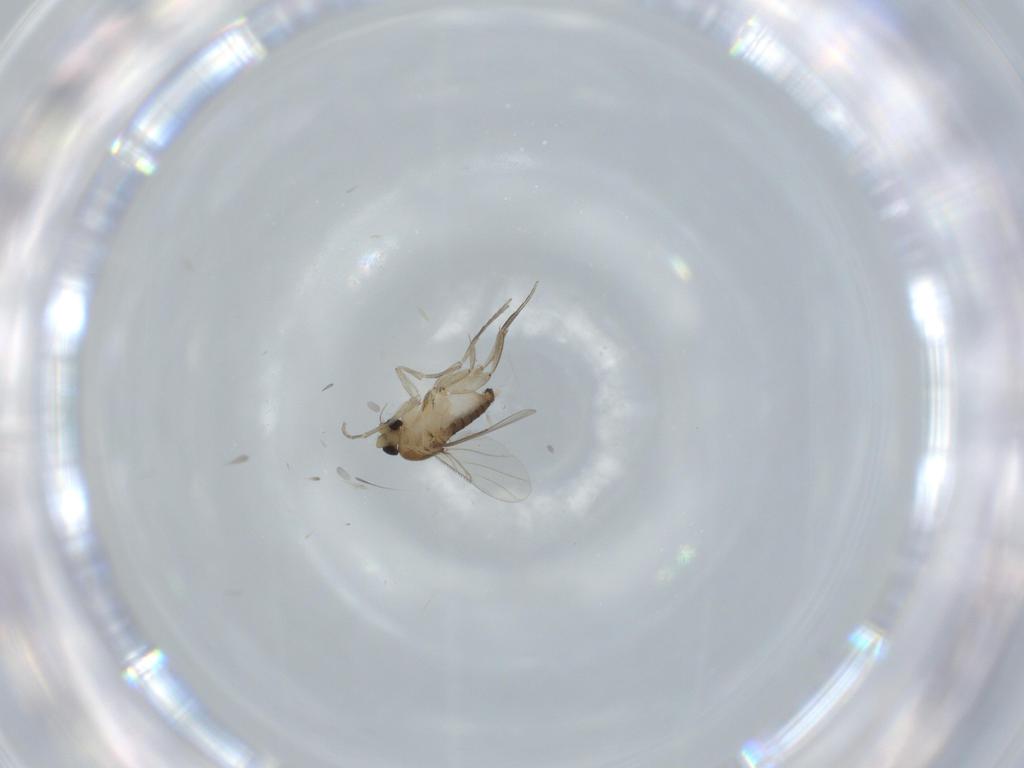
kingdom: Animalia
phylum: Arthropoda
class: Insecta
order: Diptera
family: Phoridae
